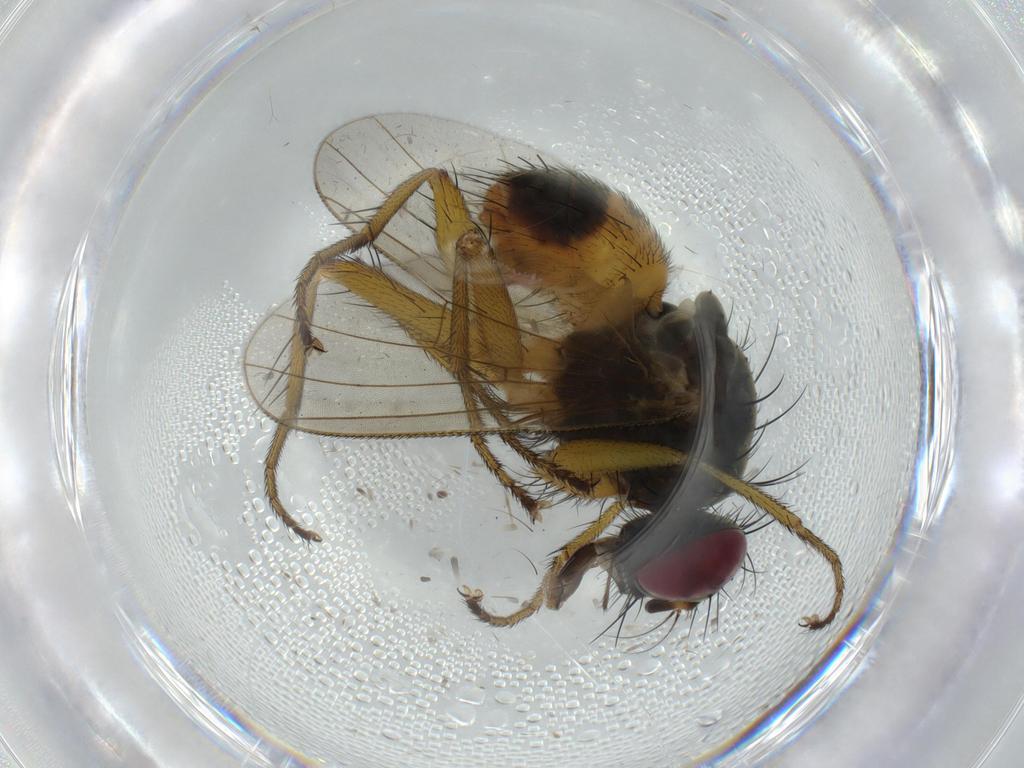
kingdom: Animalia
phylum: Arthropoda
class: Insecta
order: Diptera
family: Muscidae
